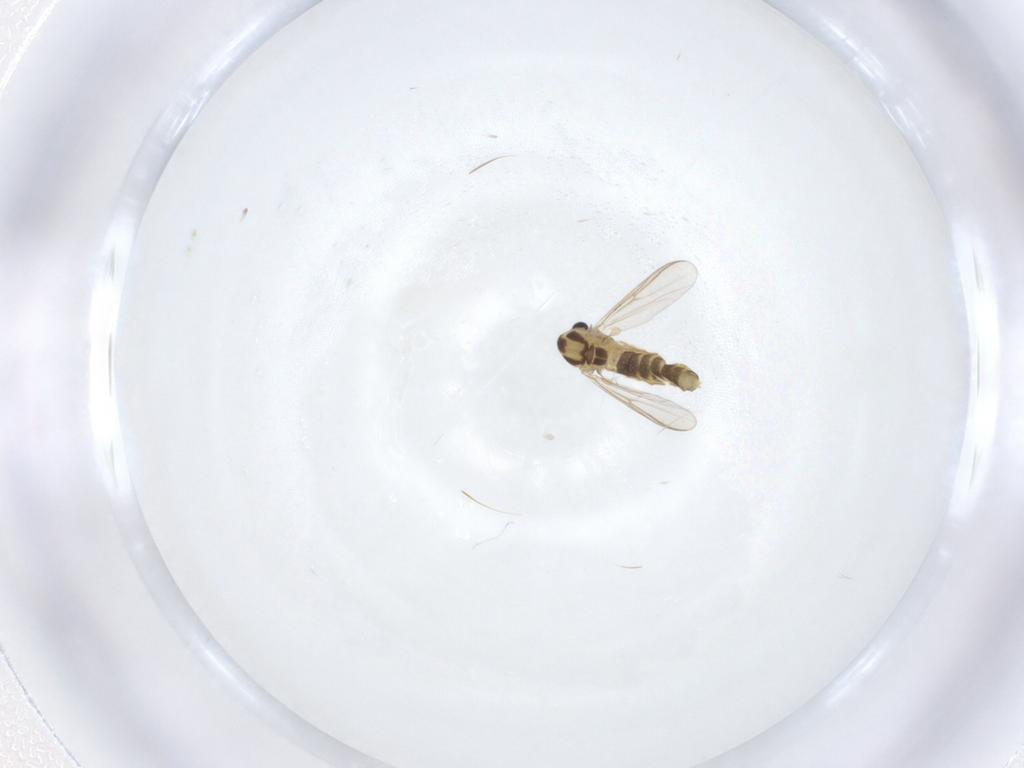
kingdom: Animalia
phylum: Arthropoda
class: Insecta
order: Diptera
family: Chironomidae
